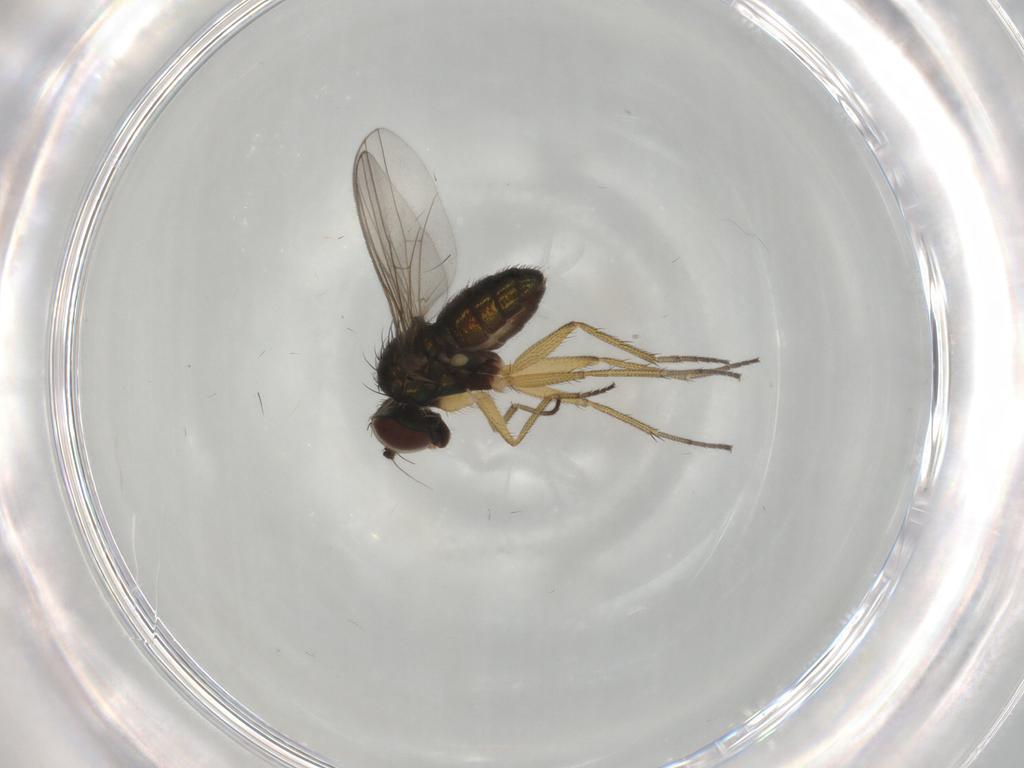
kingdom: Animalia
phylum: Arthropoda
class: Insecta
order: Diptera
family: Dolichopodidae
